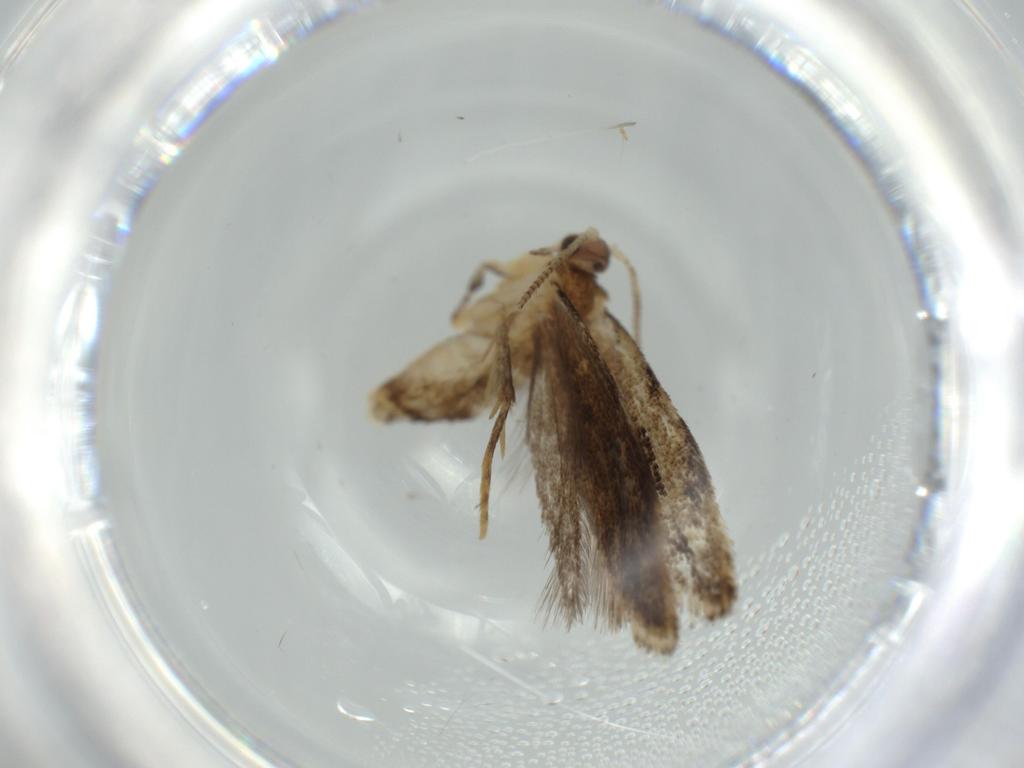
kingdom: Animalia
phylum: Arthropoda
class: Insecta
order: Lepidoptera
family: Tineidae
